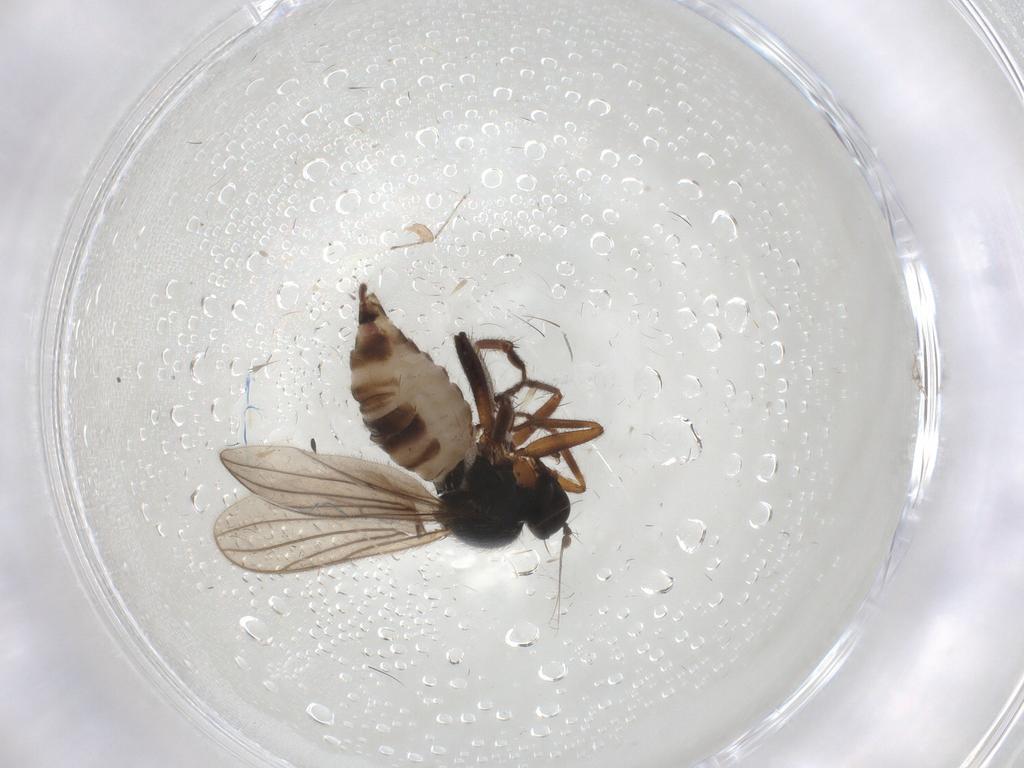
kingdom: Animalia
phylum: Arthropoda
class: Insecta
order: Diptera
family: Hybotidae
